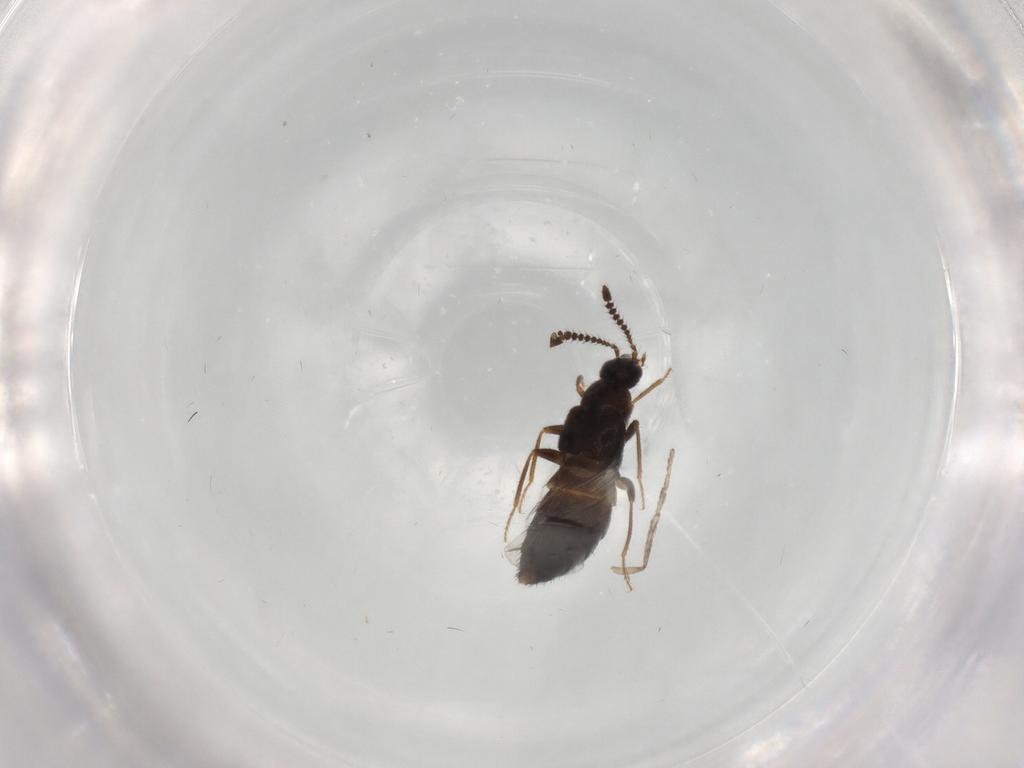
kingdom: Animalia
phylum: Arthropoda
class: Insecta
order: Coleoptera
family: Staphylinidae
